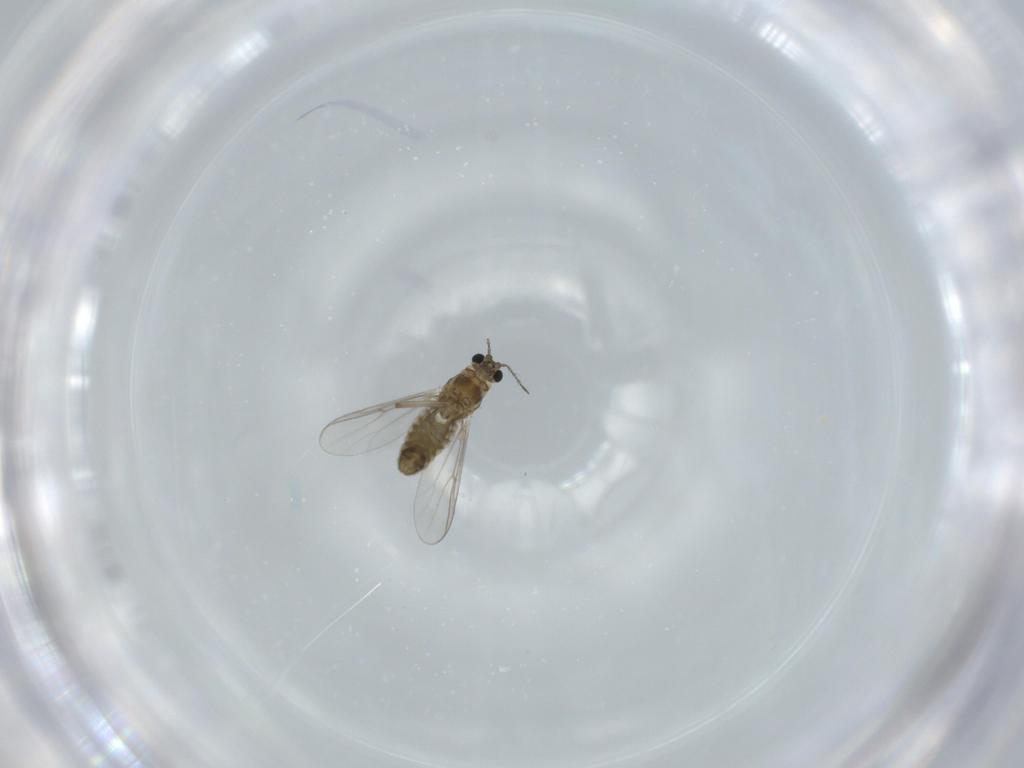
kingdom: Animalia
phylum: Arthropoda
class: Insecta
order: Diptera
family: Chironomidae
